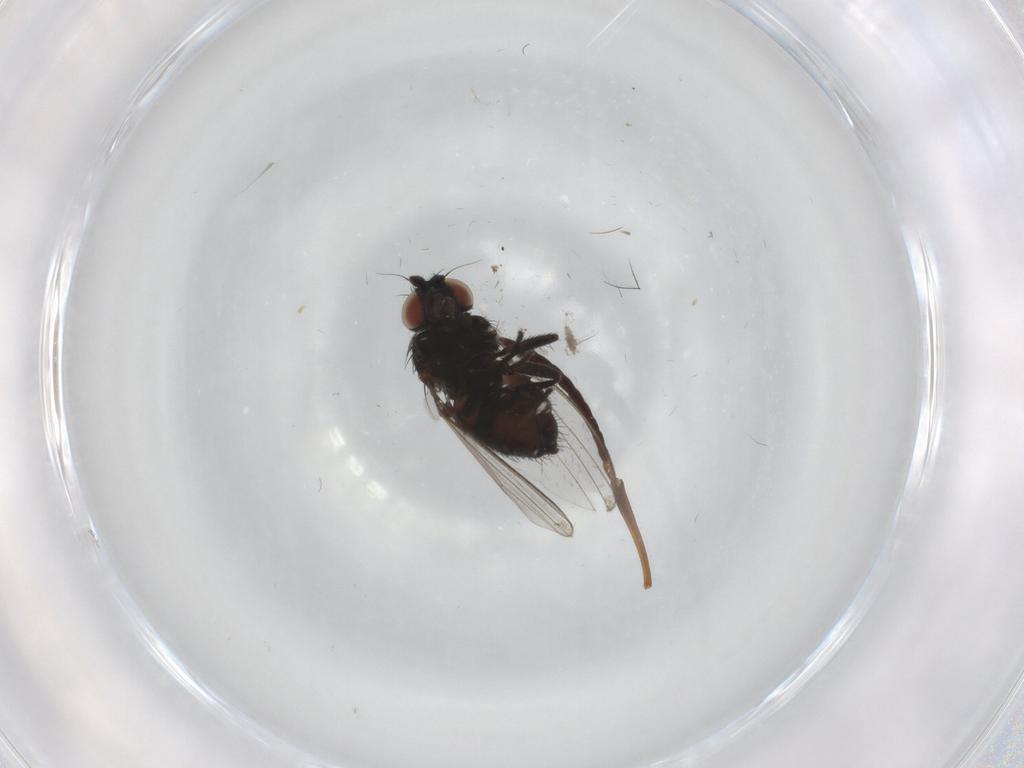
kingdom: Animalia
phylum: Arthropoda
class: Insecta
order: Diptera
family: Milichiidae
